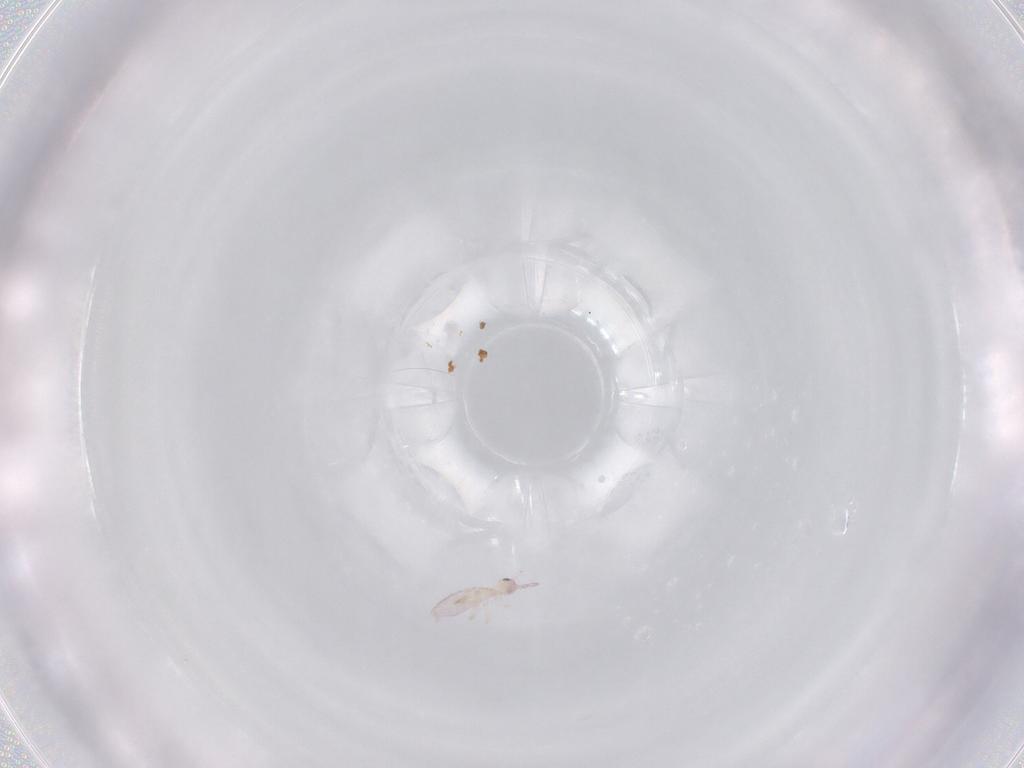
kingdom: Animalia
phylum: Arthropoda
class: Collembola
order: Entomobryomorpha
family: Entomobryidae
